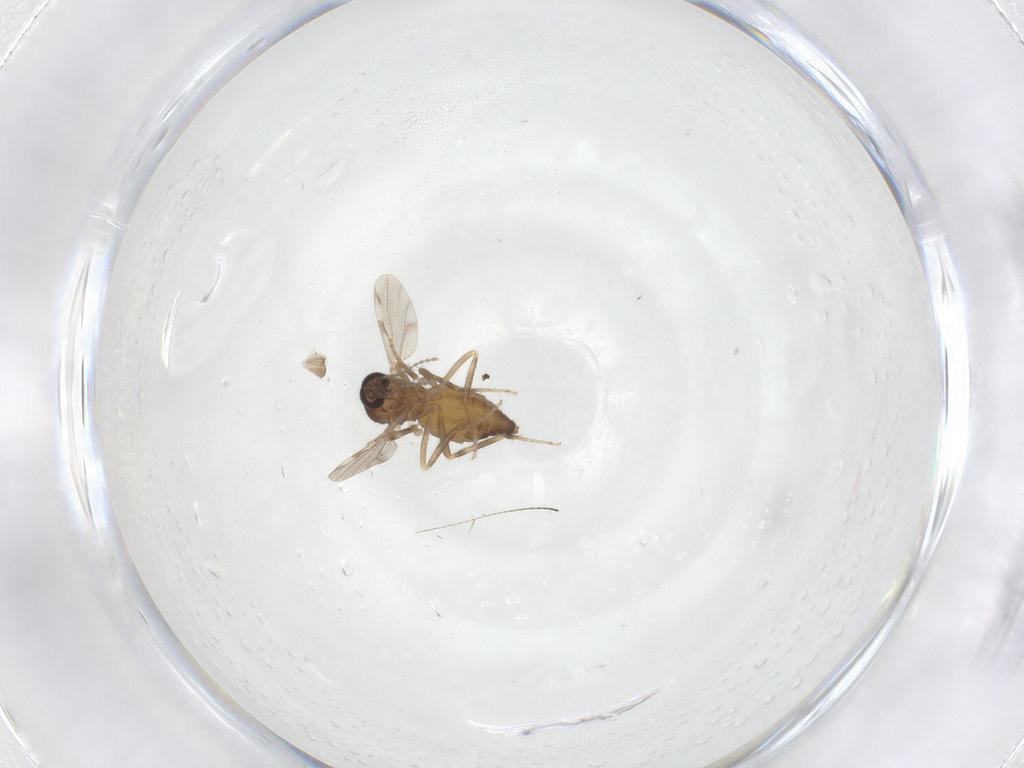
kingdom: Animalia
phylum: Arthropoda
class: Insecta
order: Diptera
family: Ceratopogonidae
